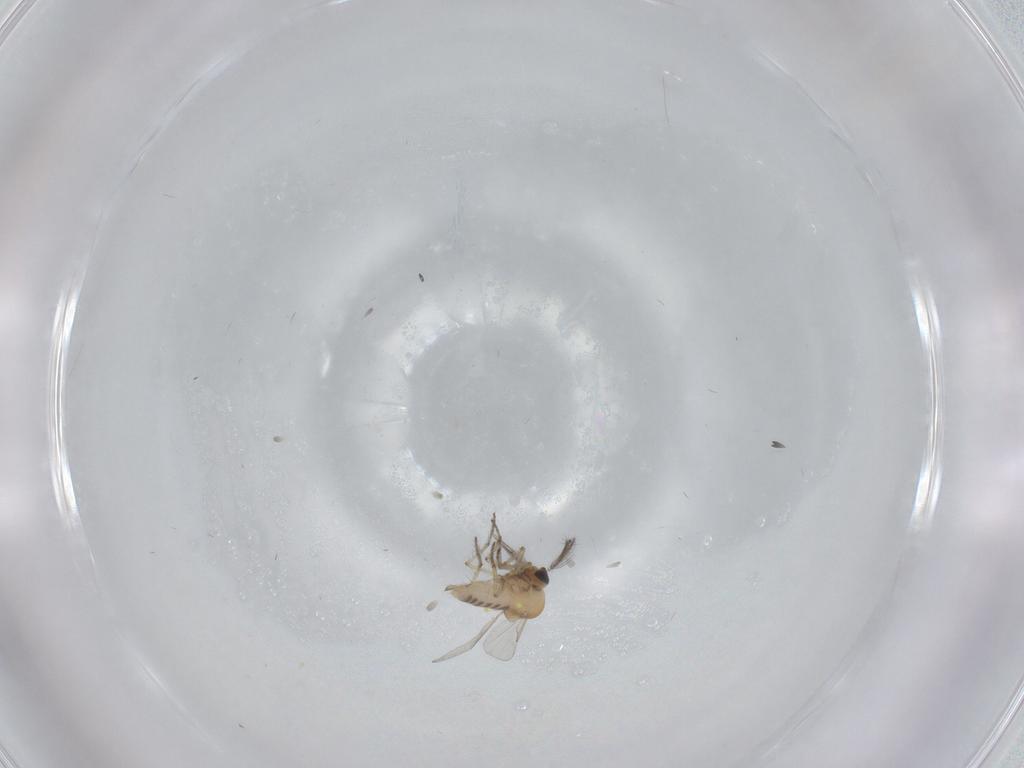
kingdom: Animalia
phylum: Arthropoda
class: Insecta
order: Diptera
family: Ceratopogonidae
